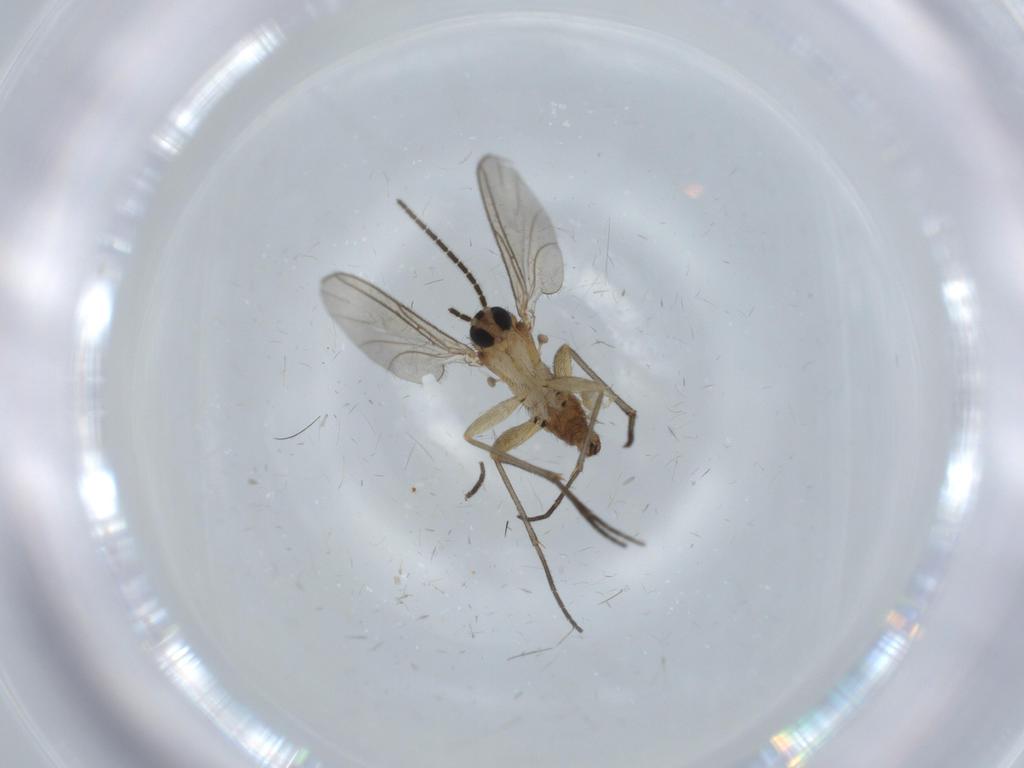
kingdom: Animalia
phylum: Arthropoda
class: Insecta
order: Diptera
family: Sciaridae
